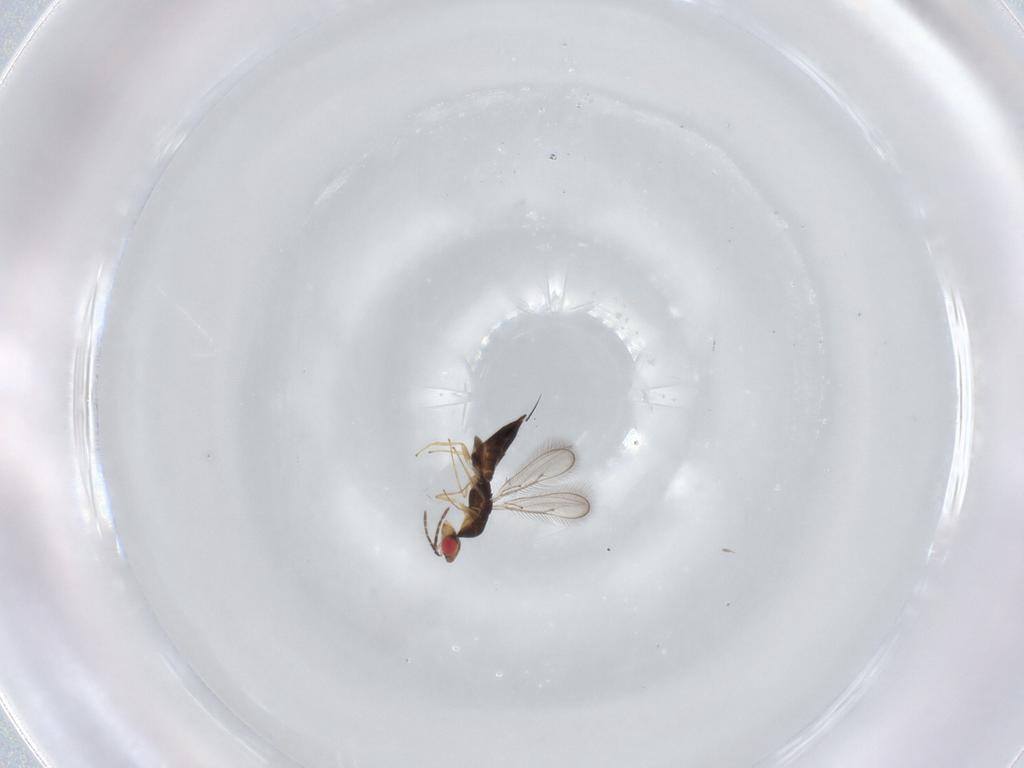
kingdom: Animalia
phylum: Arthropoda
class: Insecta
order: Hymenoptera
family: Eulophidae
